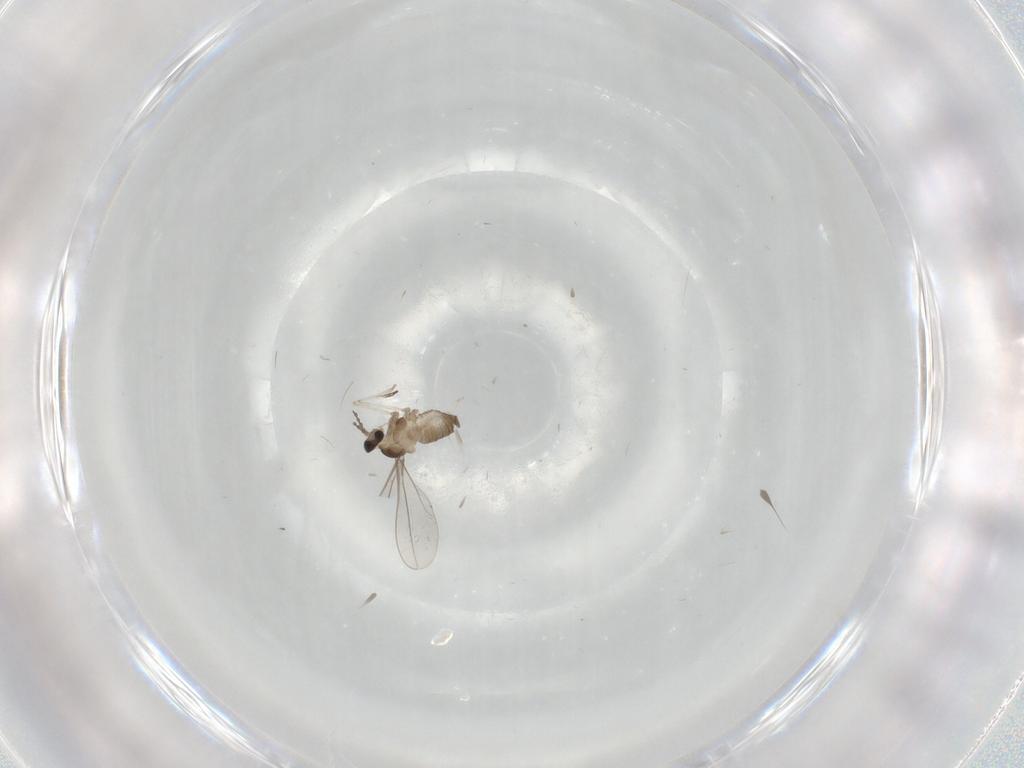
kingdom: Animalia
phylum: Arthropoda
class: Insecta
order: Diptera
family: Cecidomyiidae
